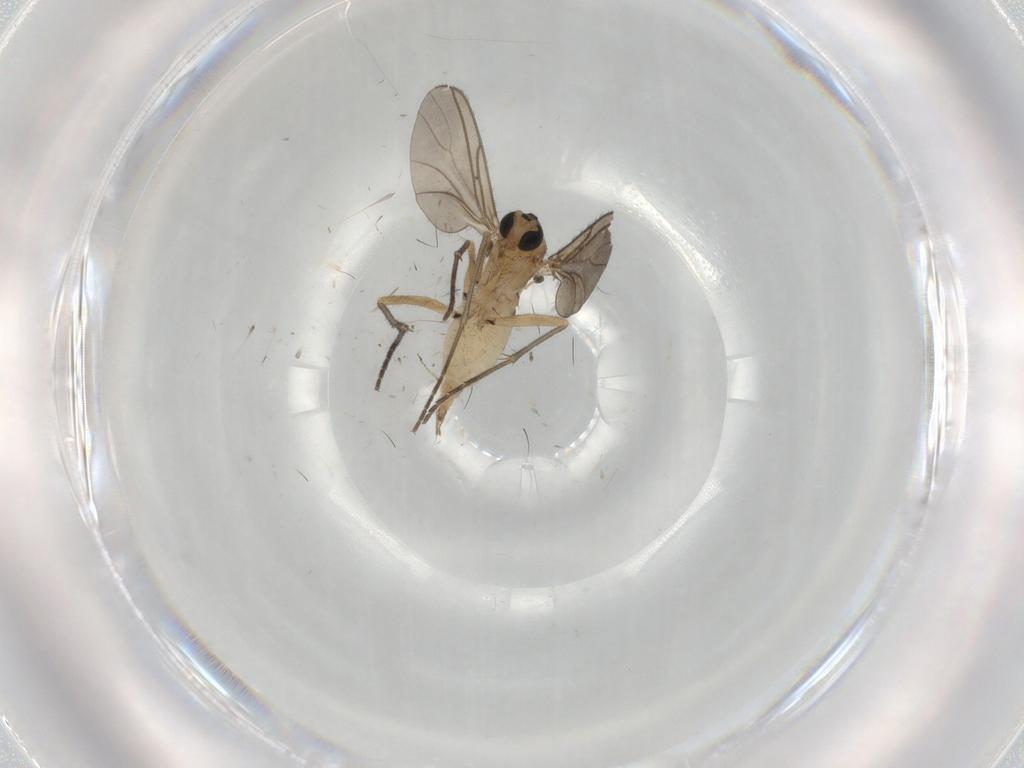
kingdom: Animalia
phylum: Arthropoda
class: Insecta
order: Diptera
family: Sciaridae
